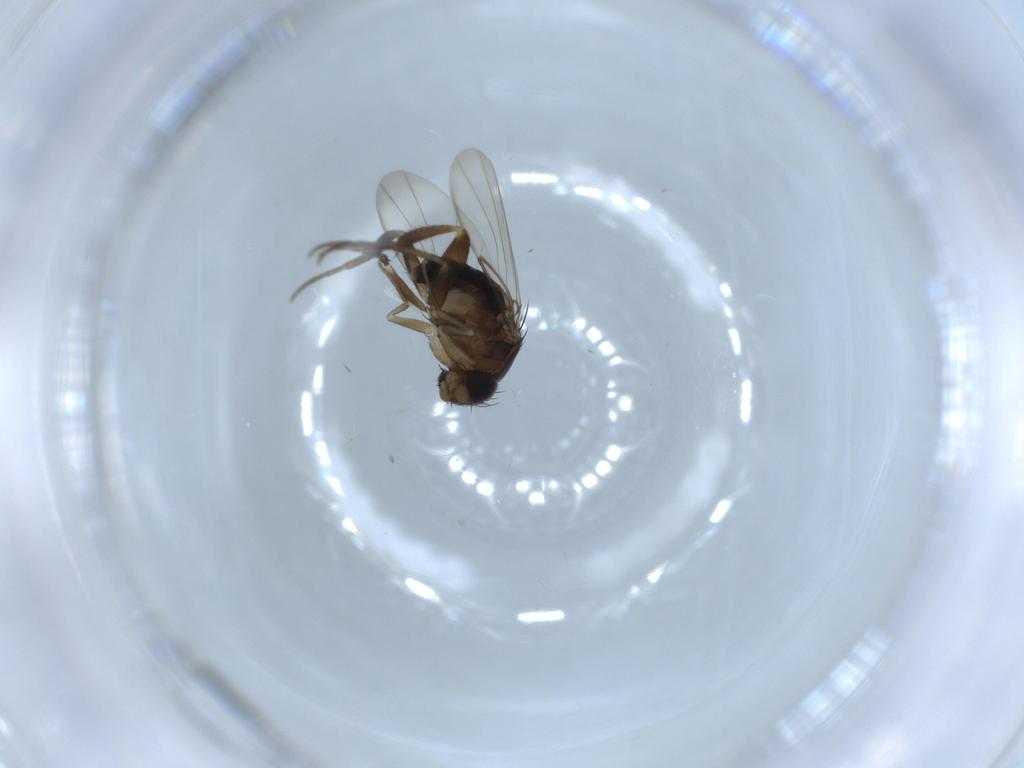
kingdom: Animalia
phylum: Arthropoda
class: Insecta
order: Diptera
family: Phoridae
